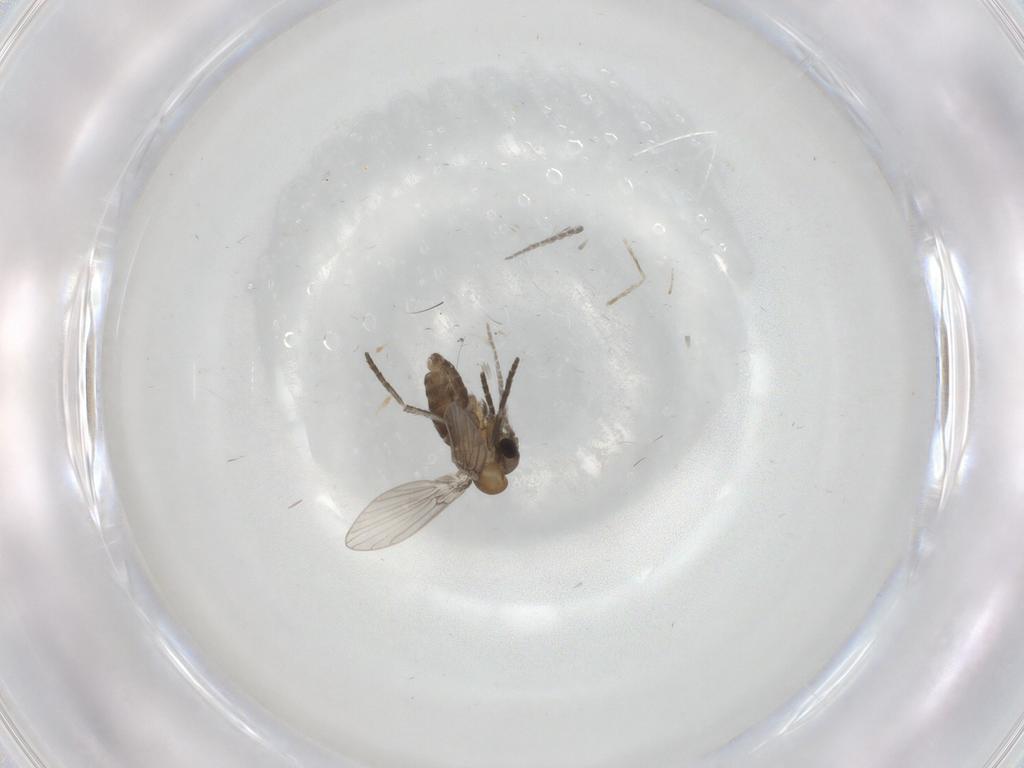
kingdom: Animalia
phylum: Arthropoda
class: Insecta
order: Diptera
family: Cecidomyiidae
